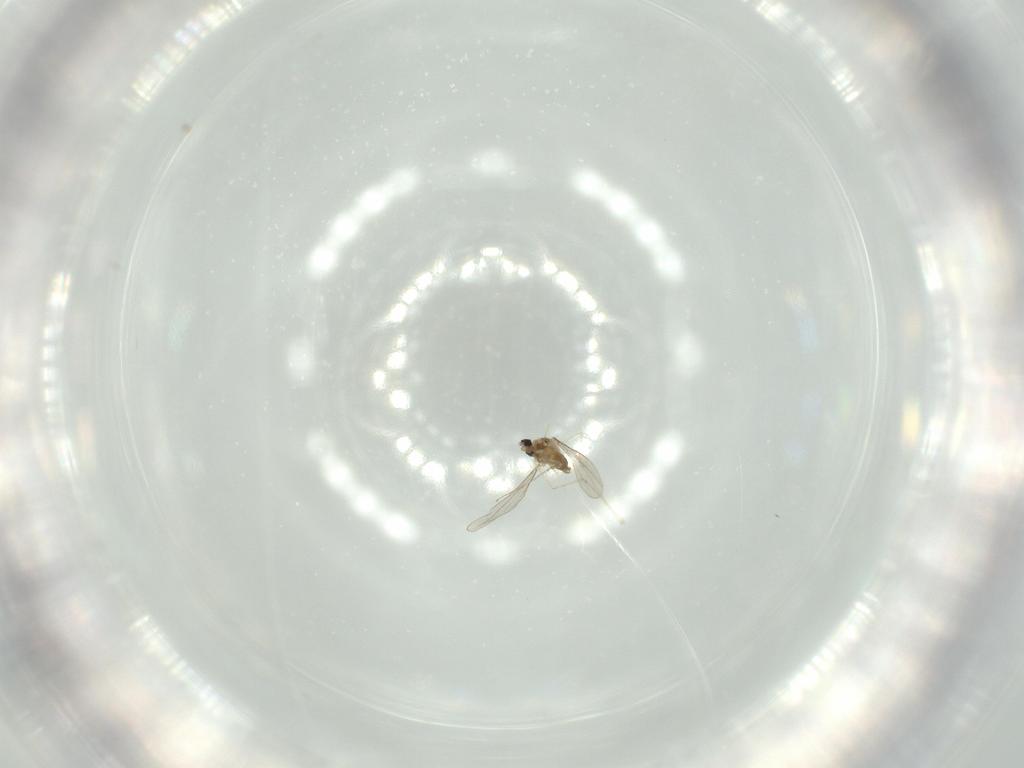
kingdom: Animalia
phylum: Arthropoda
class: Insecta
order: Diptera
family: Cecidomyiidae
